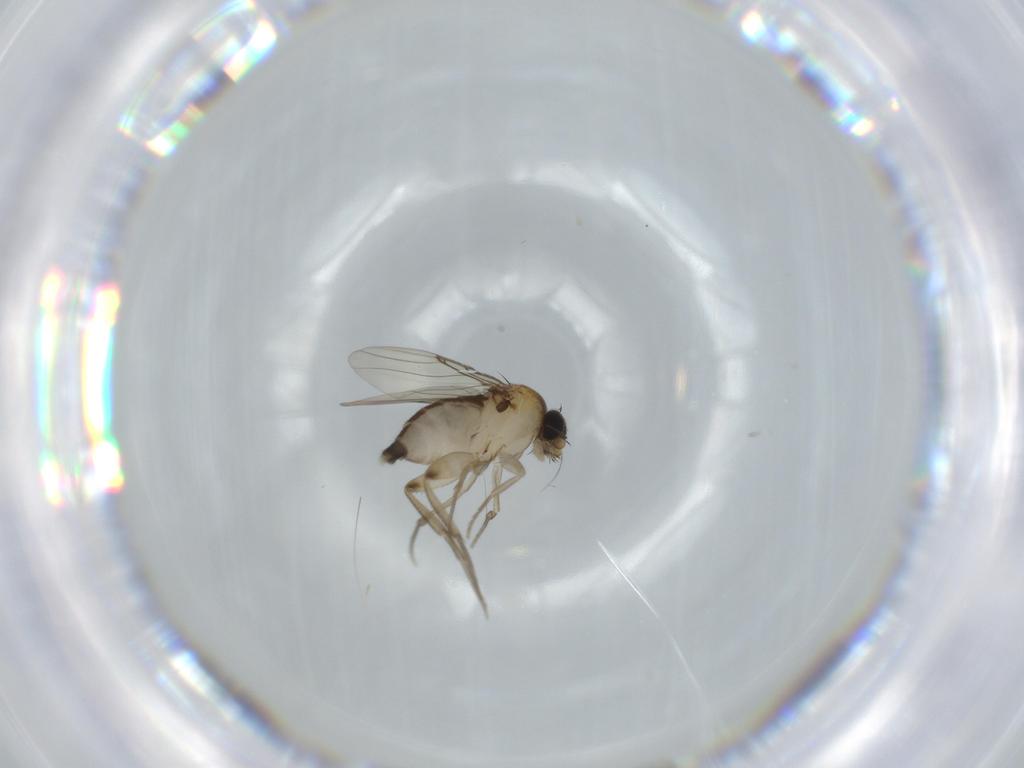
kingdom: Animalia
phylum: Arthropoda
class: Insecta
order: Diptera
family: Phoridae
